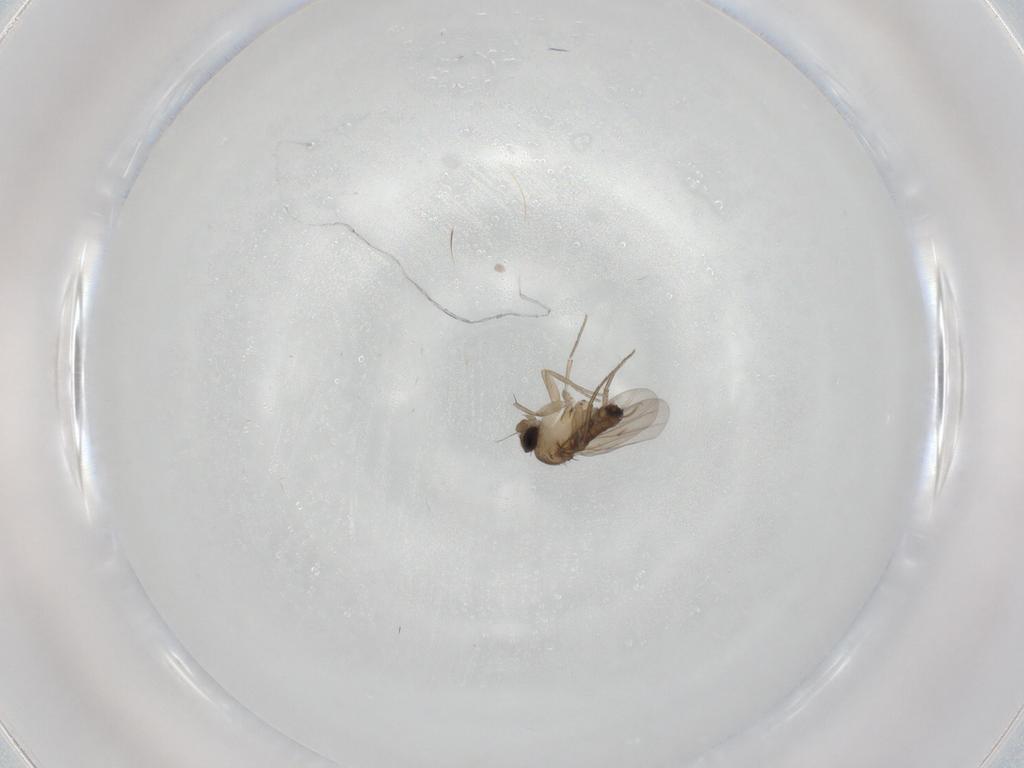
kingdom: Animalia
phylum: Arthropoda
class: Insecta
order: Diptera
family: Phoridae
